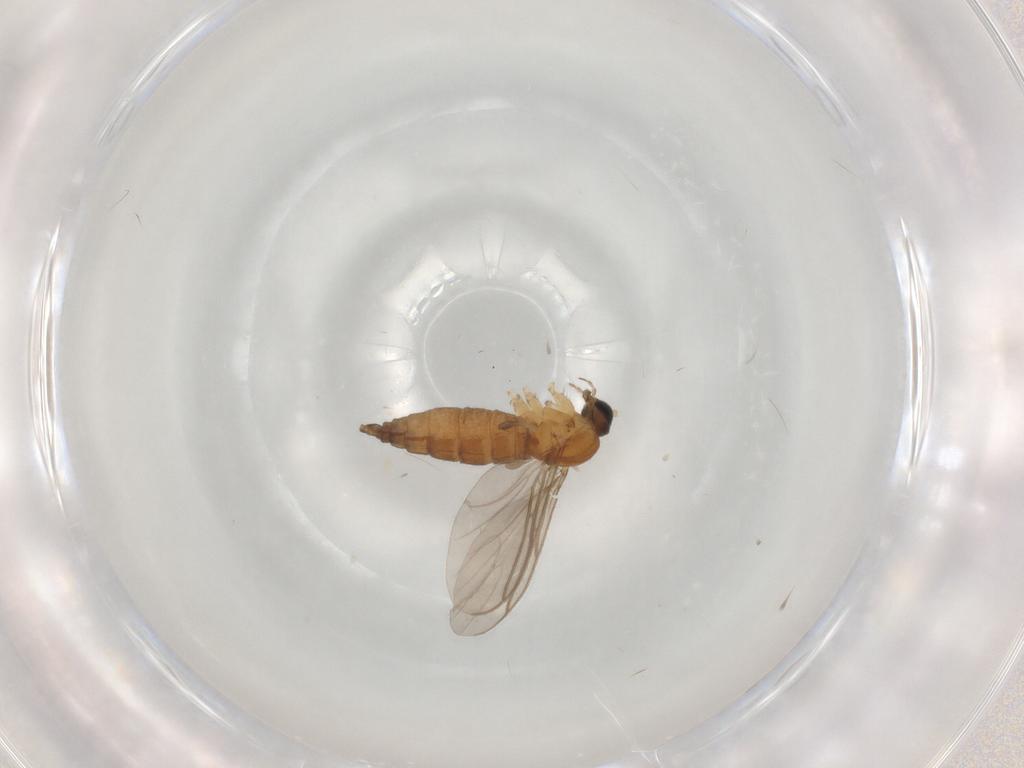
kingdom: Animalia
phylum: Arthropoda
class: Insecta
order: Diptera
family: Sciaridae
